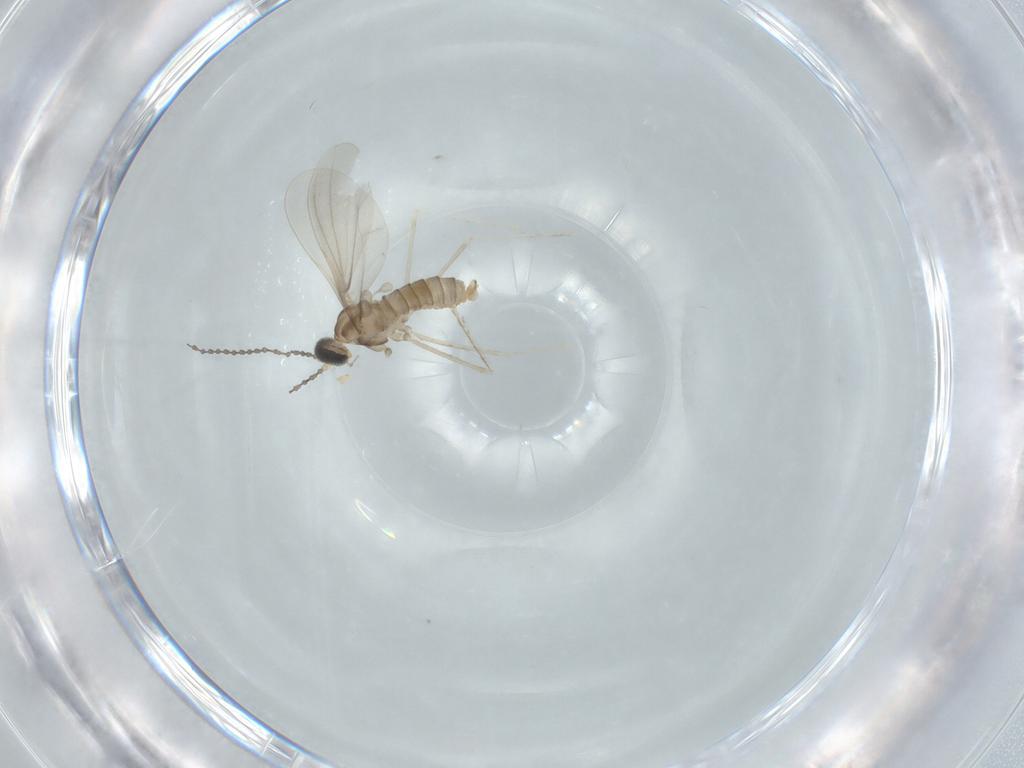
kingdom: Animalia
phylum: Arthropoda
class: Insecta
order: Diptera
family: Cecidomyiidae
